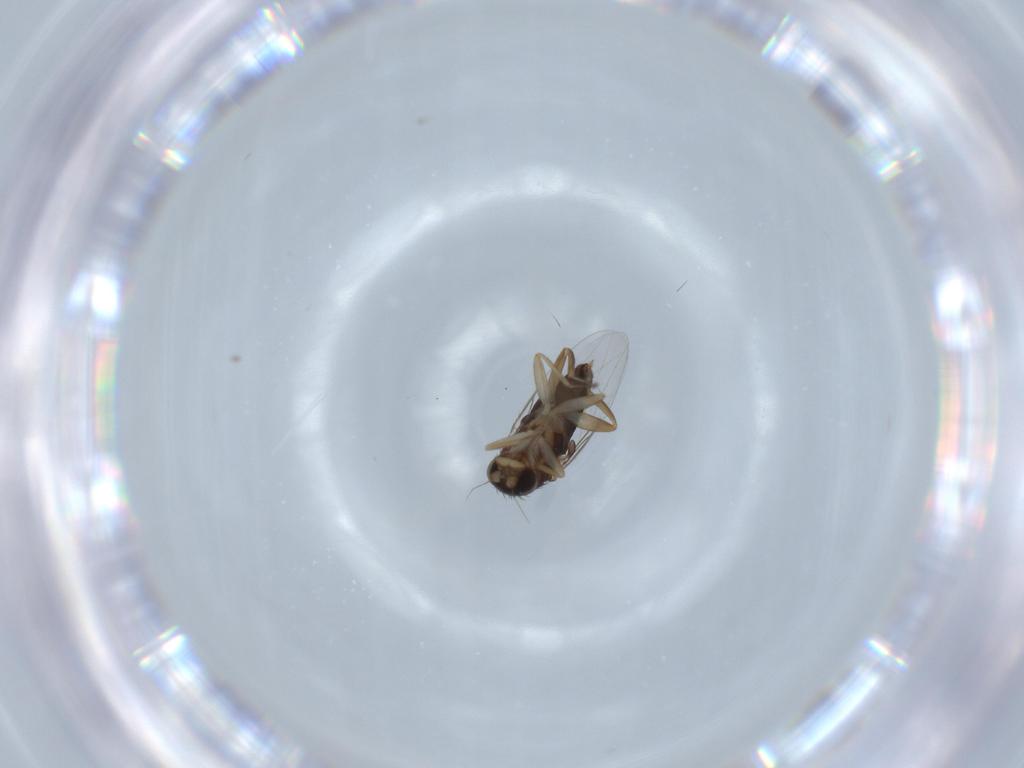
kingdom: Animalia
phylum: Arthropoda
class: Insecta
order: Diptera
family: Phoridae
